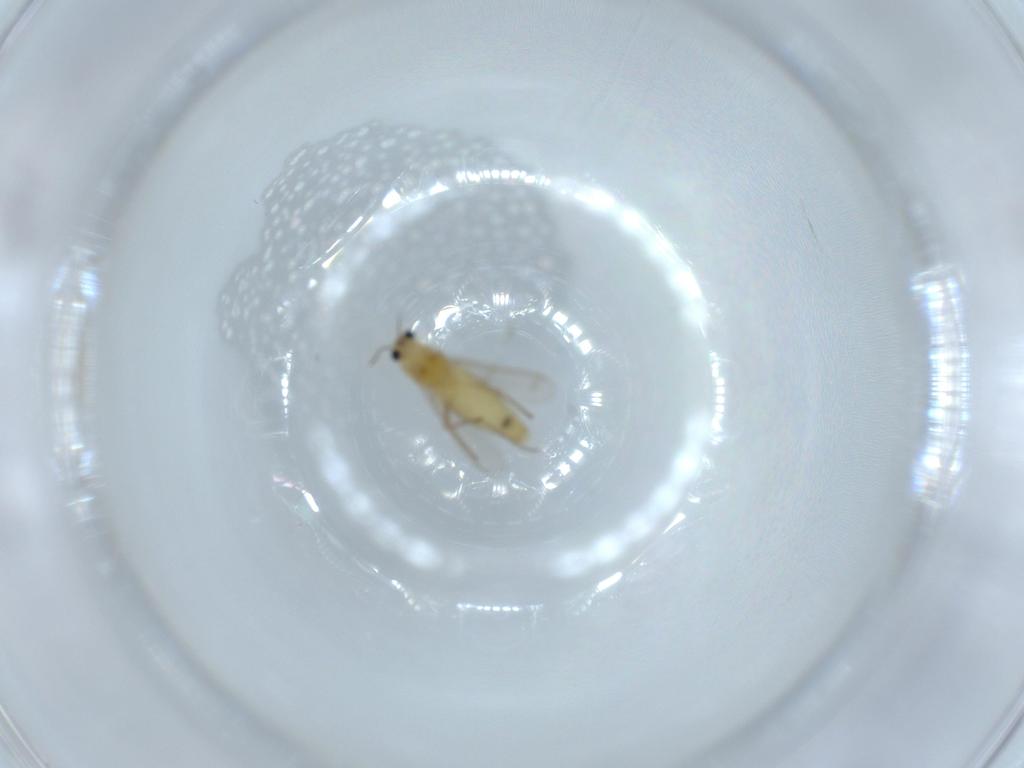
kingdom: Animalia
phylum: Arthropoda
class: Insecta
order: Diptera
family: Chironomidae
